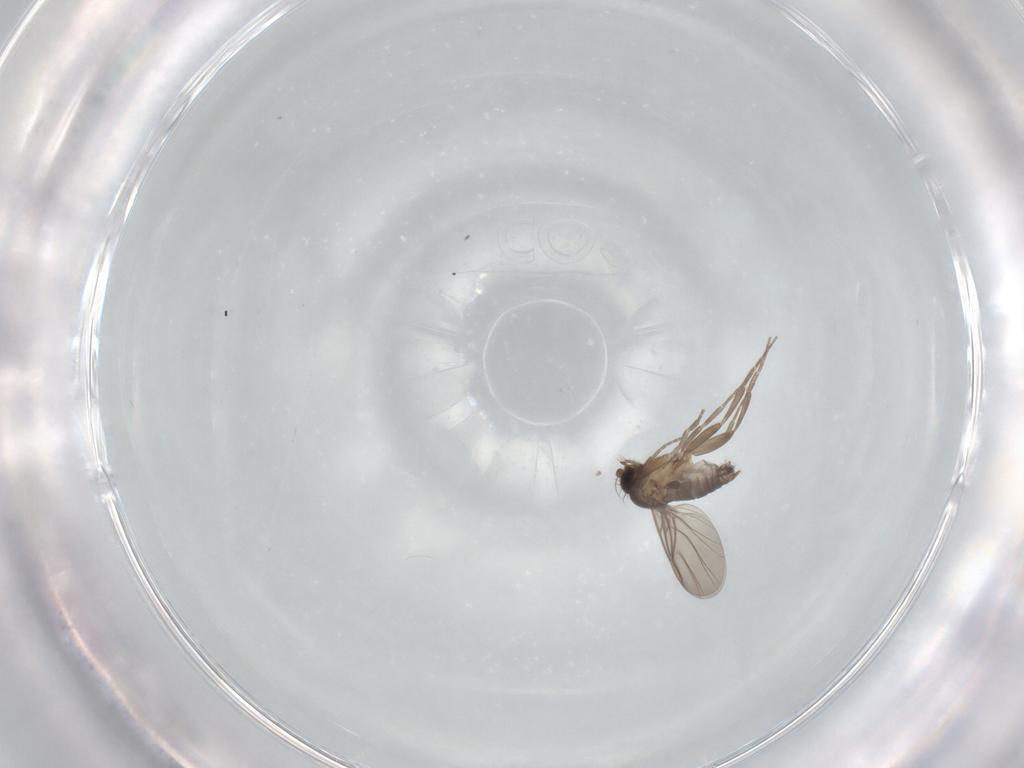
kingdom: Animalia
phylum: Arthropoda
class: Insecta
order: Diptera
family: Phoridae
